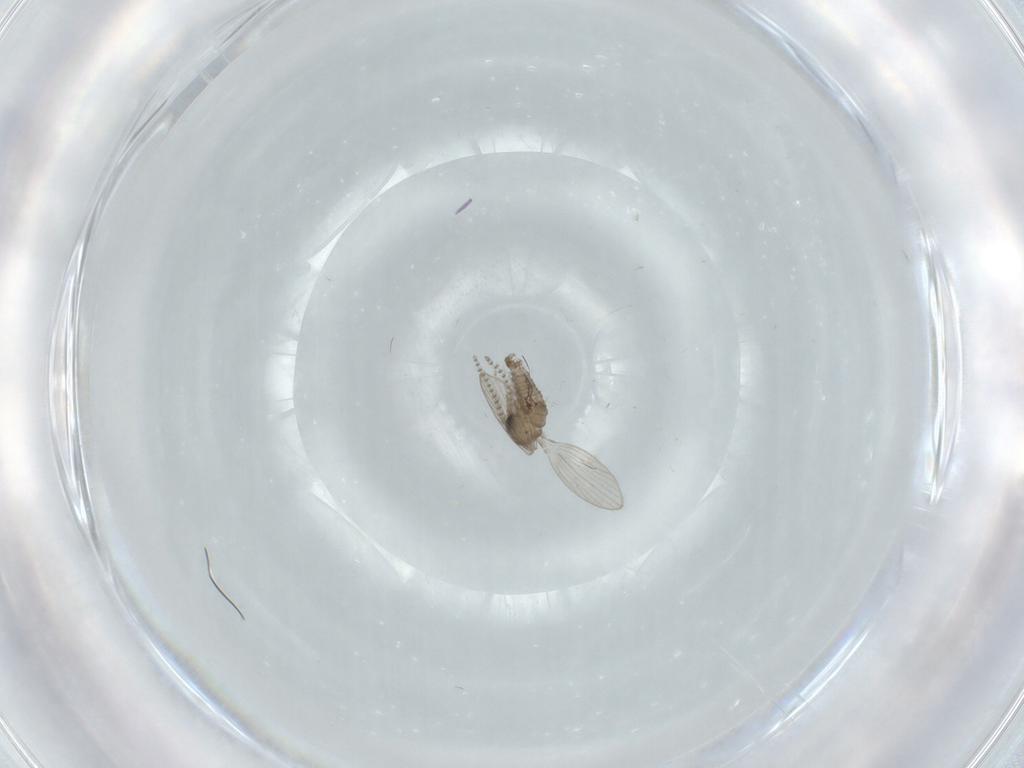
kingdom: Animalia
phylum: Arthropoda
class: Insecta
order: Diptera
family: Psychodidae
